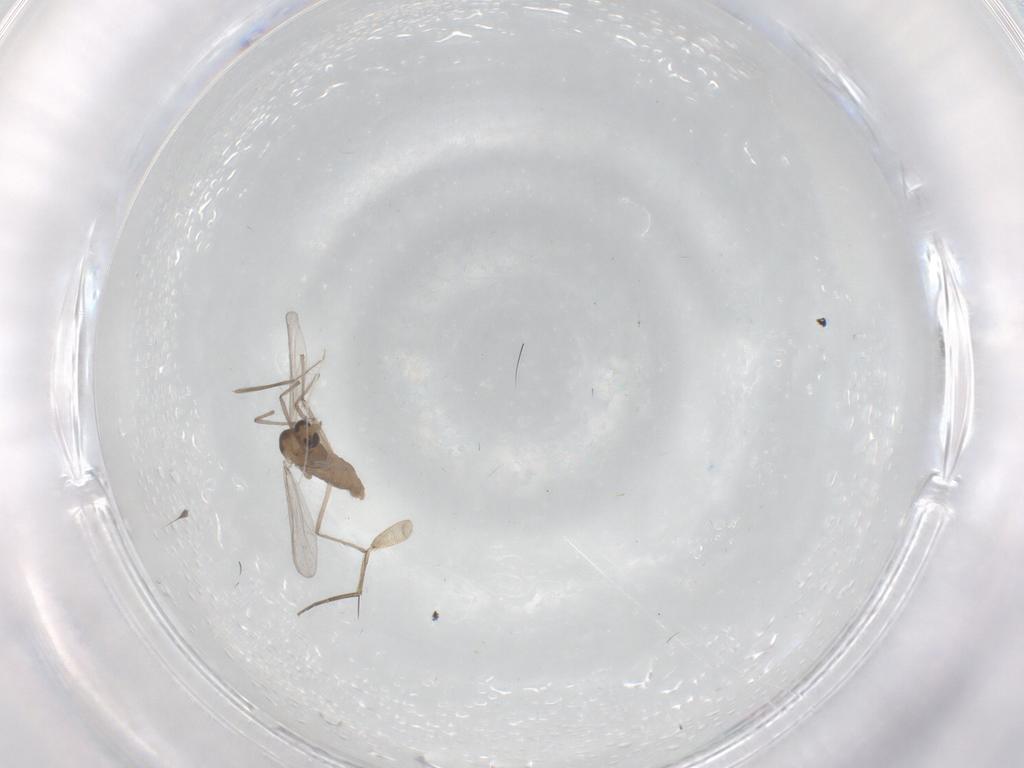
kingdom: Animalia
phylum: Arthropoda
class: Insecta
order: Diptera
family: Chironomidae
